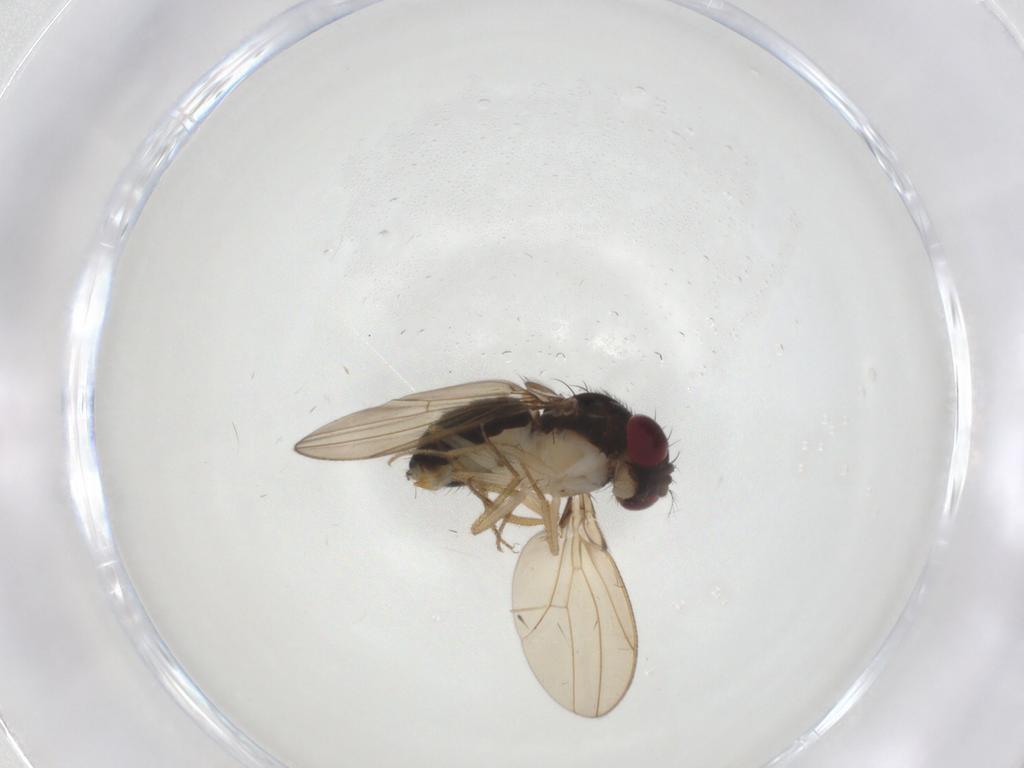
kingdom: Animalia
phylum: Arthropoda
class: Insecta
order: Diptera
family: Drosophilidae
